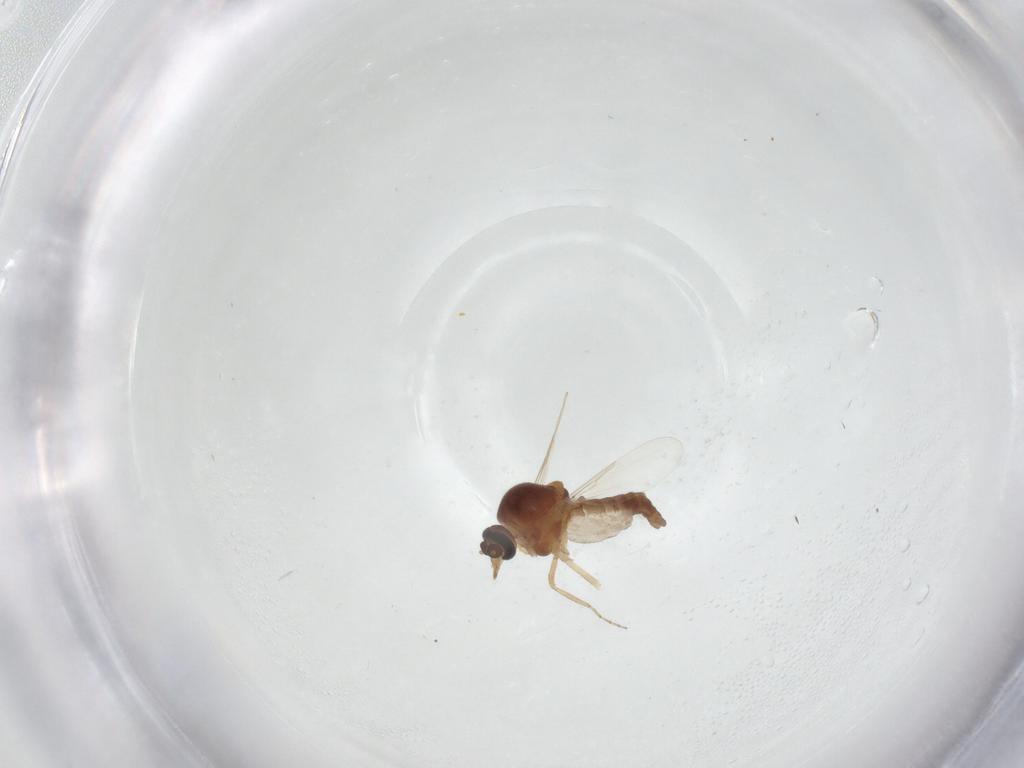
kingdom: Animalia
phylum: Arthropoda
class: Insecta
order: Diptera
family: Ceratopogonidae
